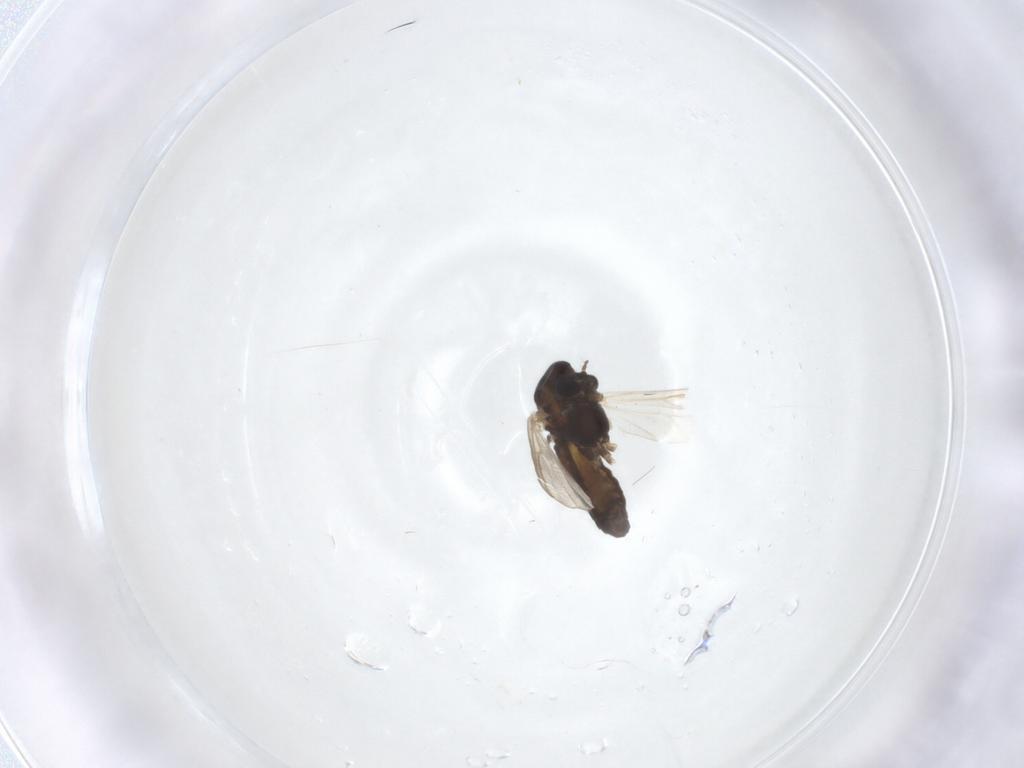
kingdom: Animalia
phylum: Arthropoda
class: Insecta
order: Diptera
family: Chironomidae
